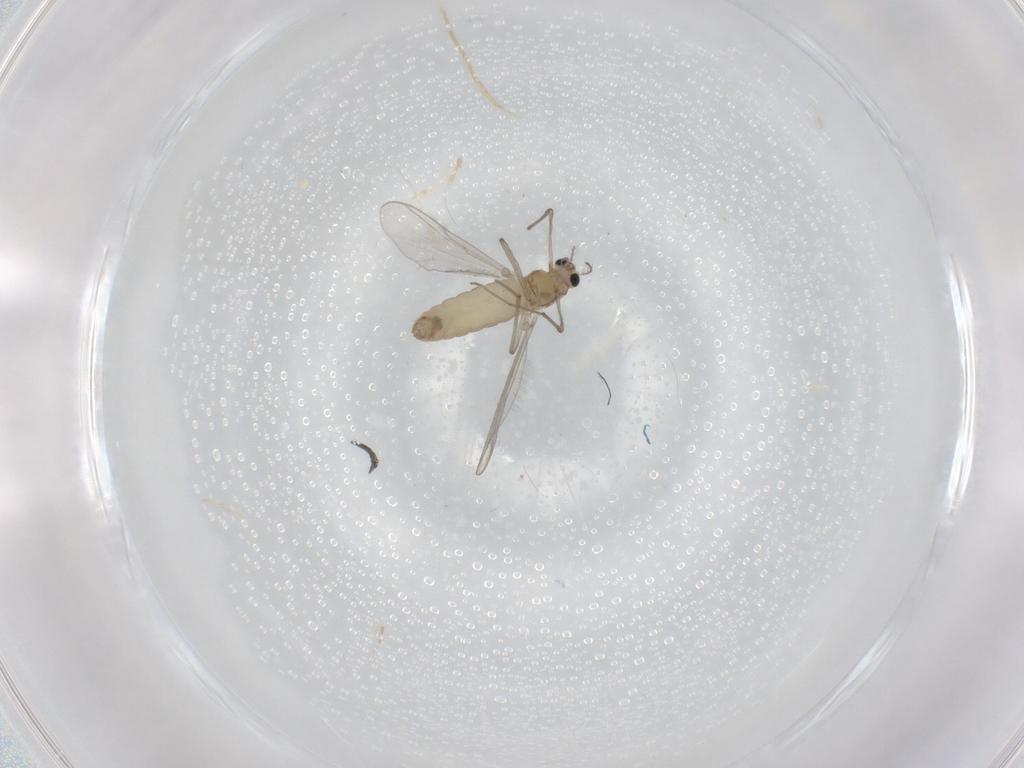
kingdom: Animalia
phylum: Arthropoda
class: Insecta
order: Diptera
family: Chironomidae
